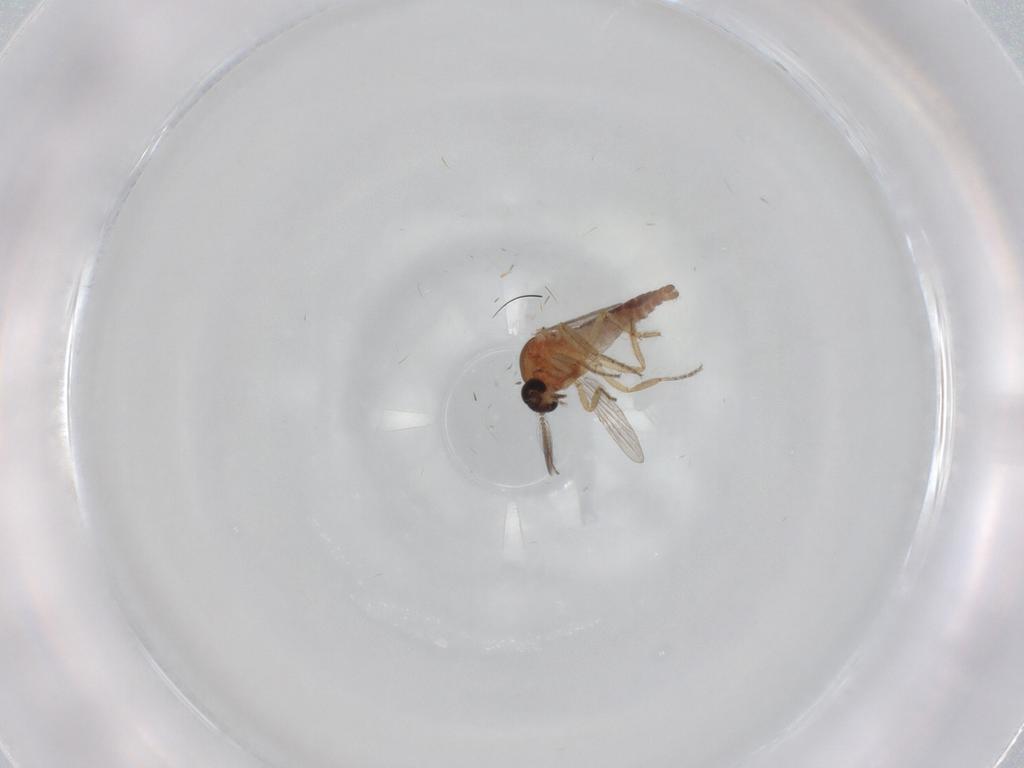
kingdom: Animalia
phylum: Arthropoda
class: Insecta
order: Diptera
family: Ceratopogonidae
